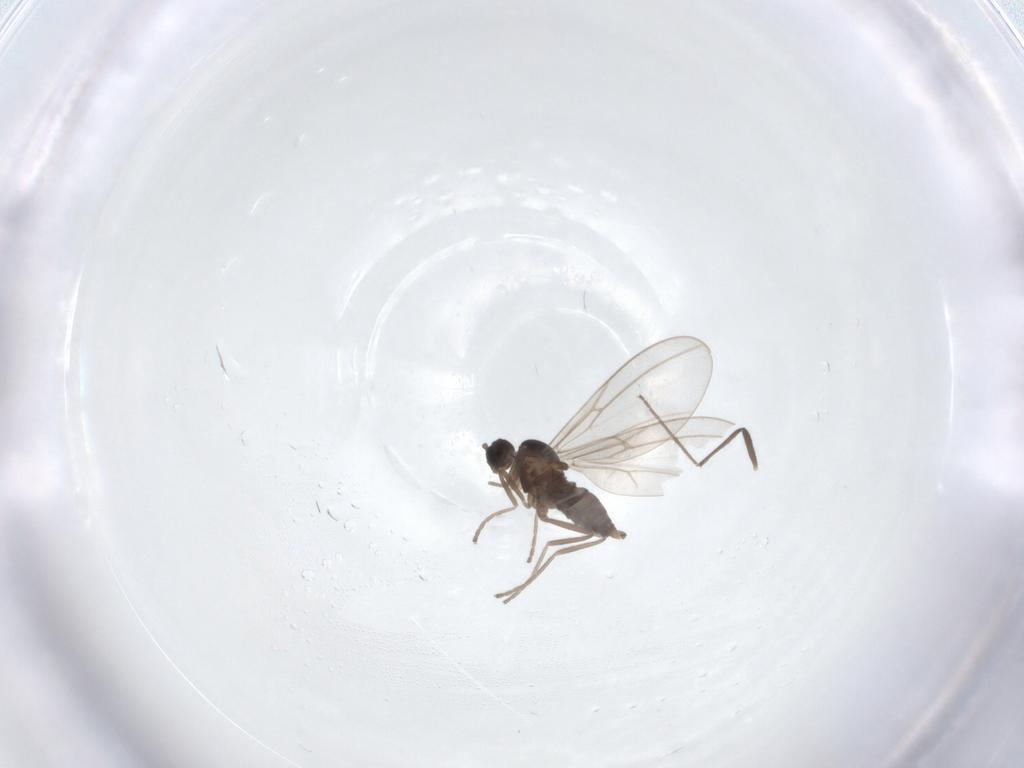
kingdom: Animalia
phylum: Arthropoda
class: Insecta
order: Diptera
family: Cecidomyiidae
